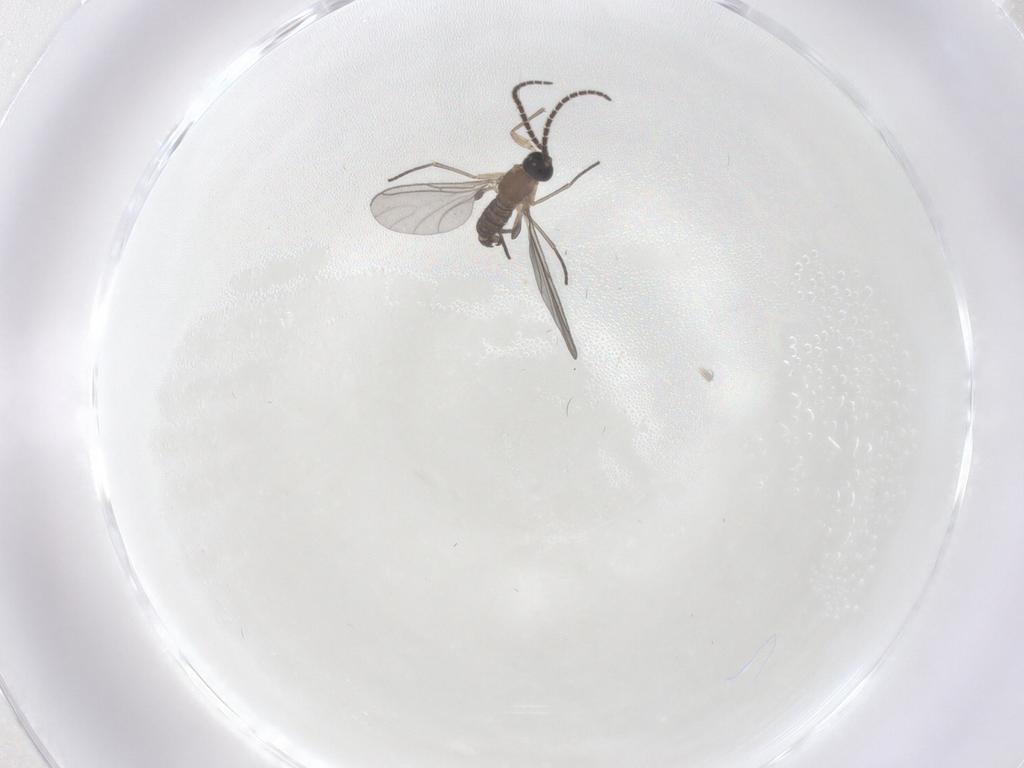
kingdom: Animalia
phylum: Arthropoda
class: Insecta
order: Diptera
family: Sciaridae
